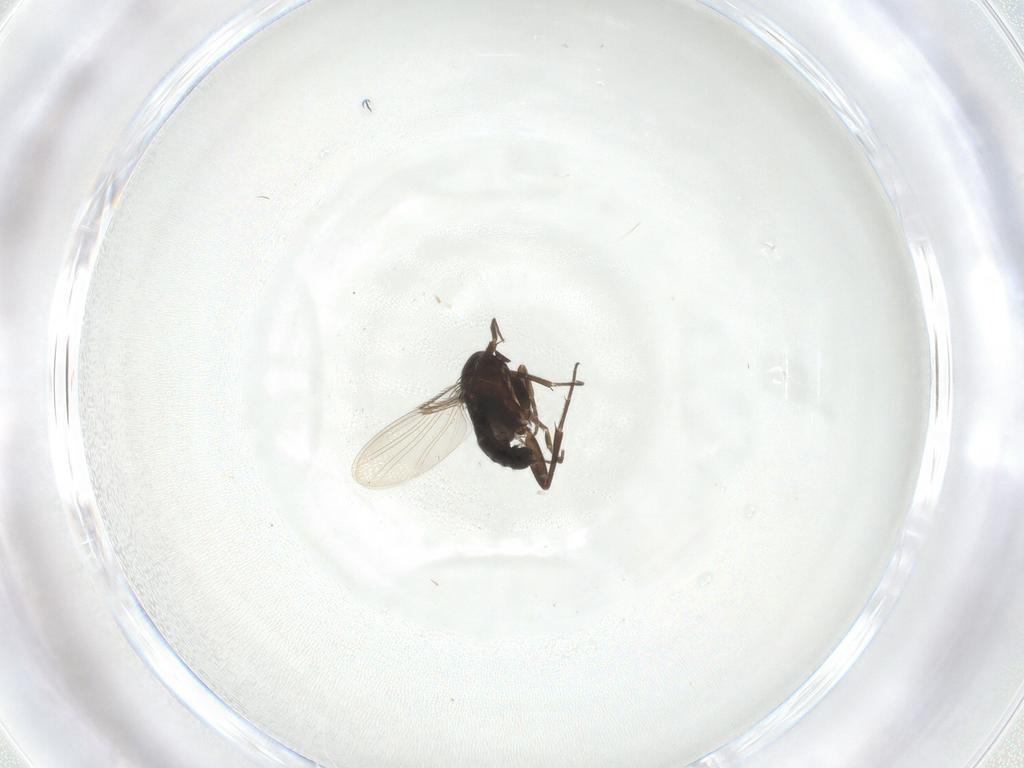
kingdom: Animalia
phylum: Arthropoda
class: Insecta
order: Diptera
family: Phoridae
